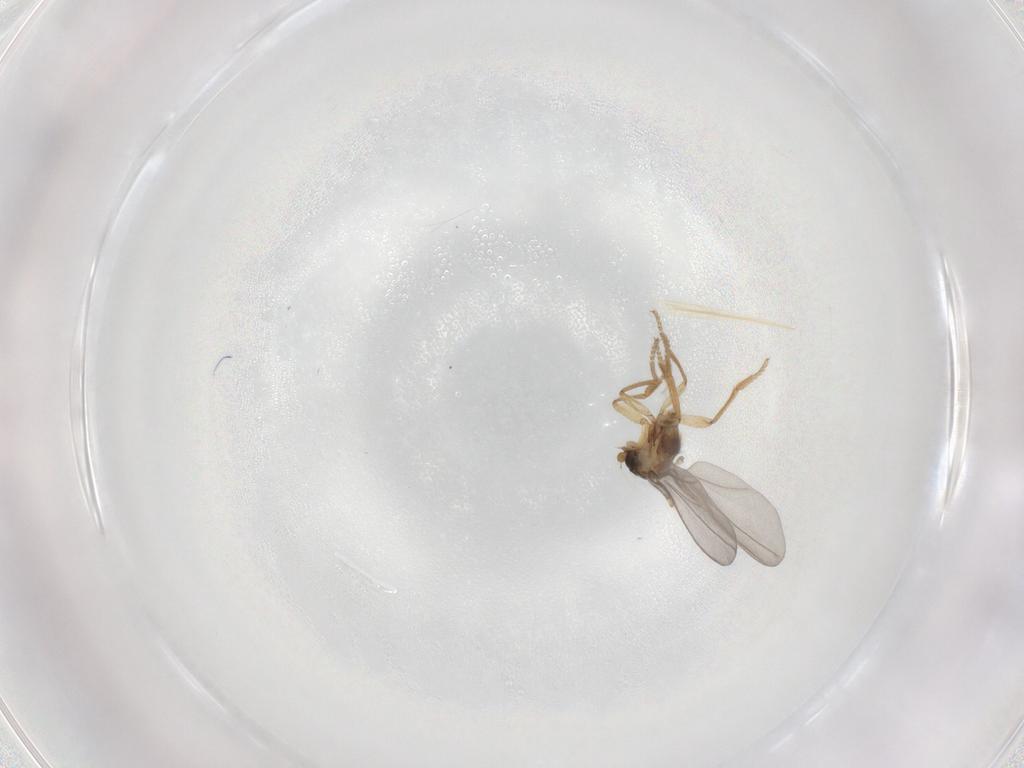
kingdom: Animalia
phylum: Arthropoda
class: Insecta
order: Diptera
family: Phoridae
